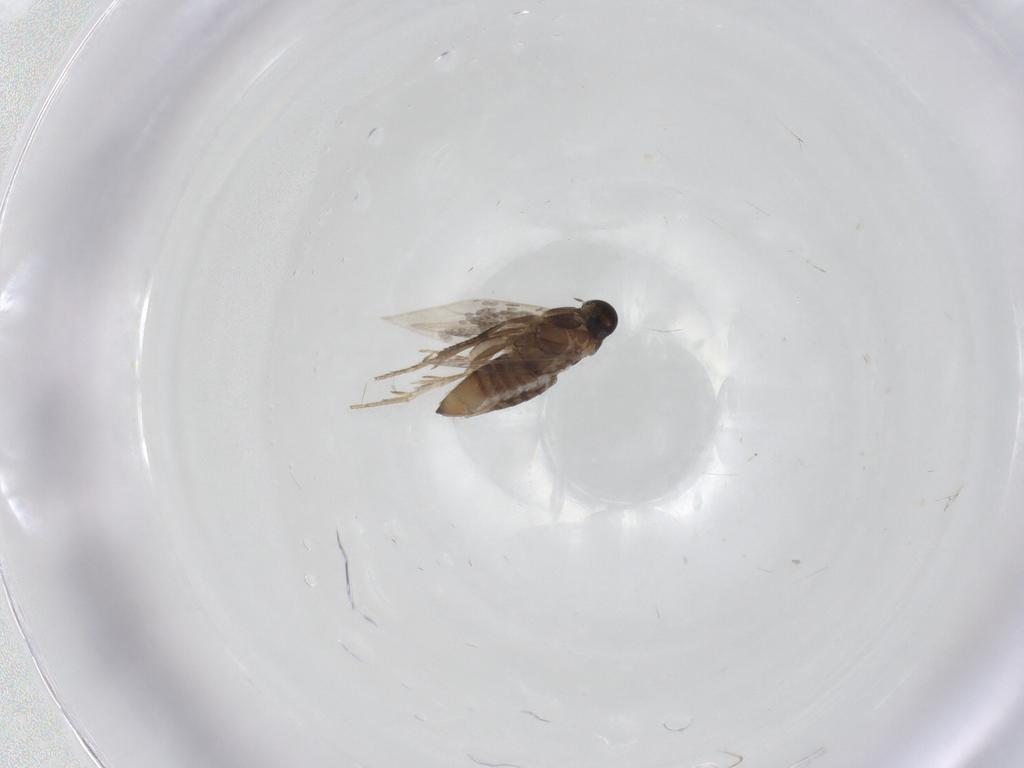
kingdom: Animalia
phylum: Arthropoda
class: Insecta
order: Lepidoptera
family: Heliozelidae
